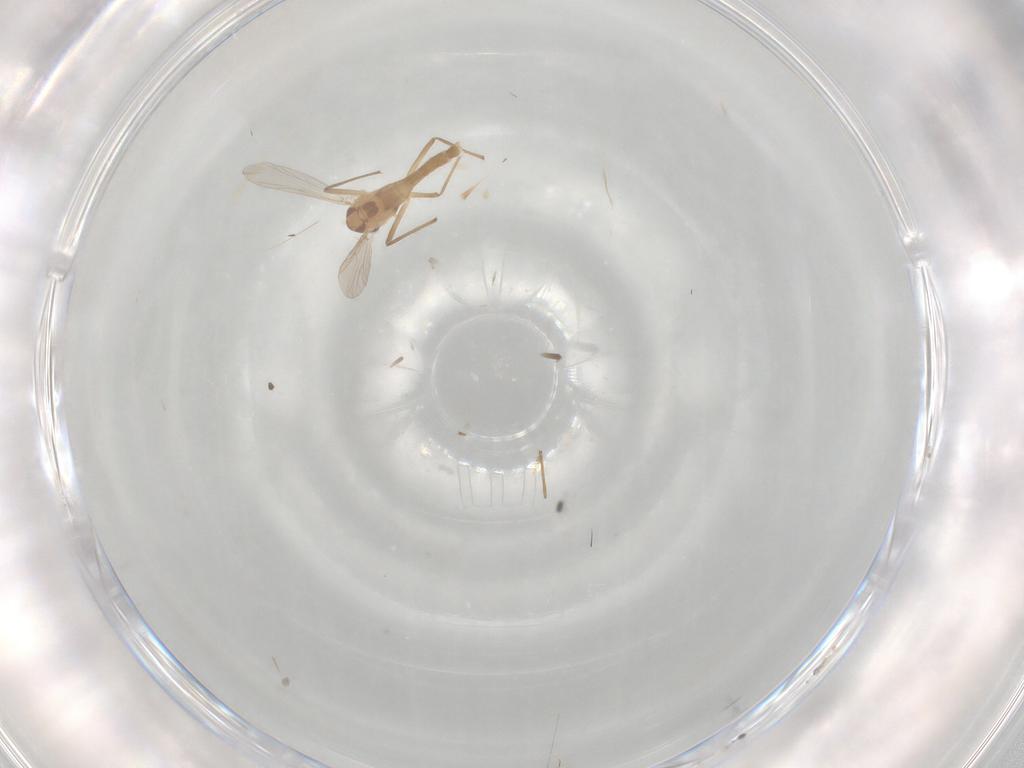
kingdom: Animalia
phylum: Arthropoda
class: Insecta
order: Diptera
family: Chironomidae
